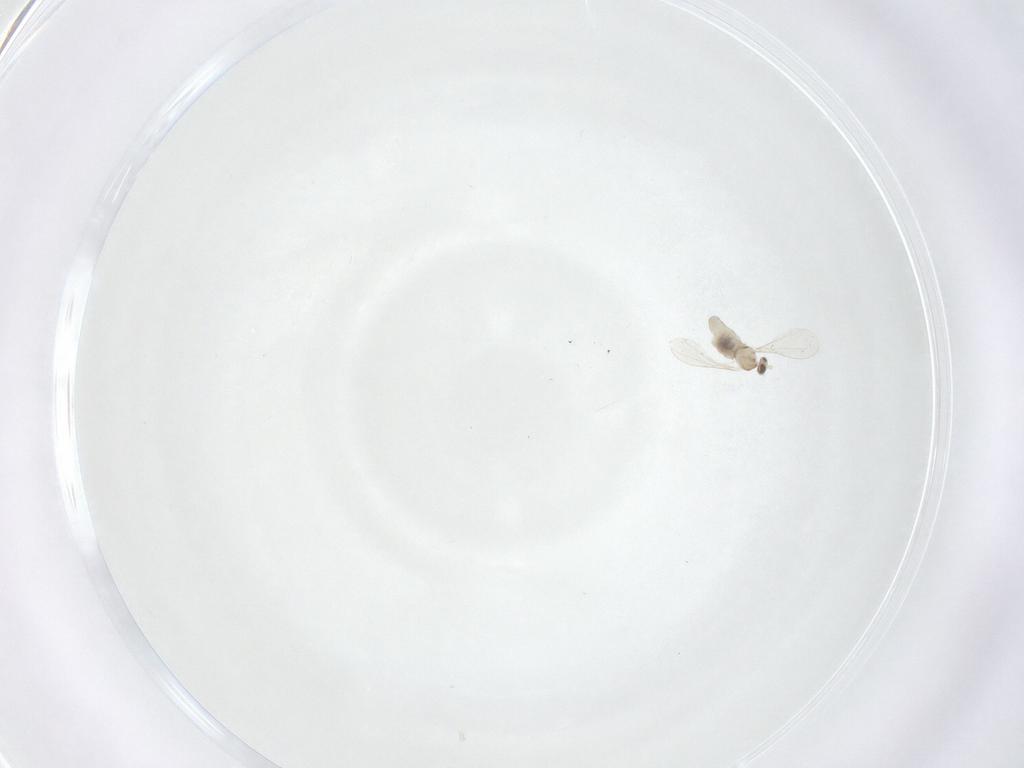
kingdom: Animalia
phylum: Arthropoda
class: Insecta
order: Diptera
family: Cecidomyiidae
